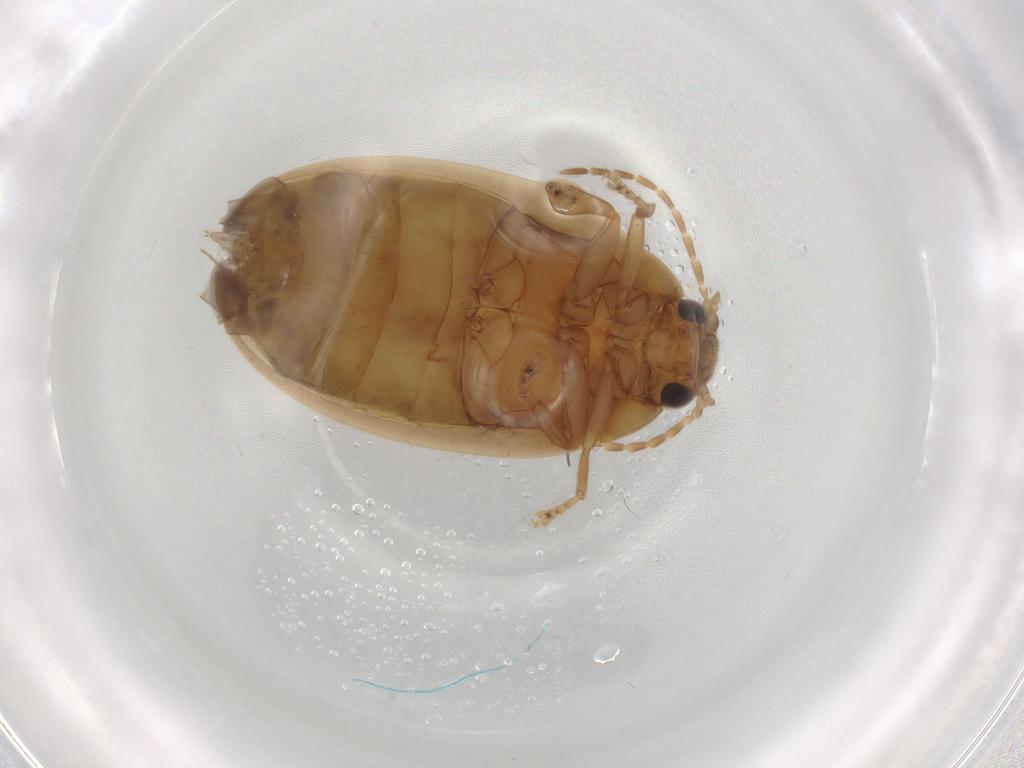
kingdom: Animalia
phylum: Arthropoda
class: Insecta
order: Coleoptera
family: Scirtidae
